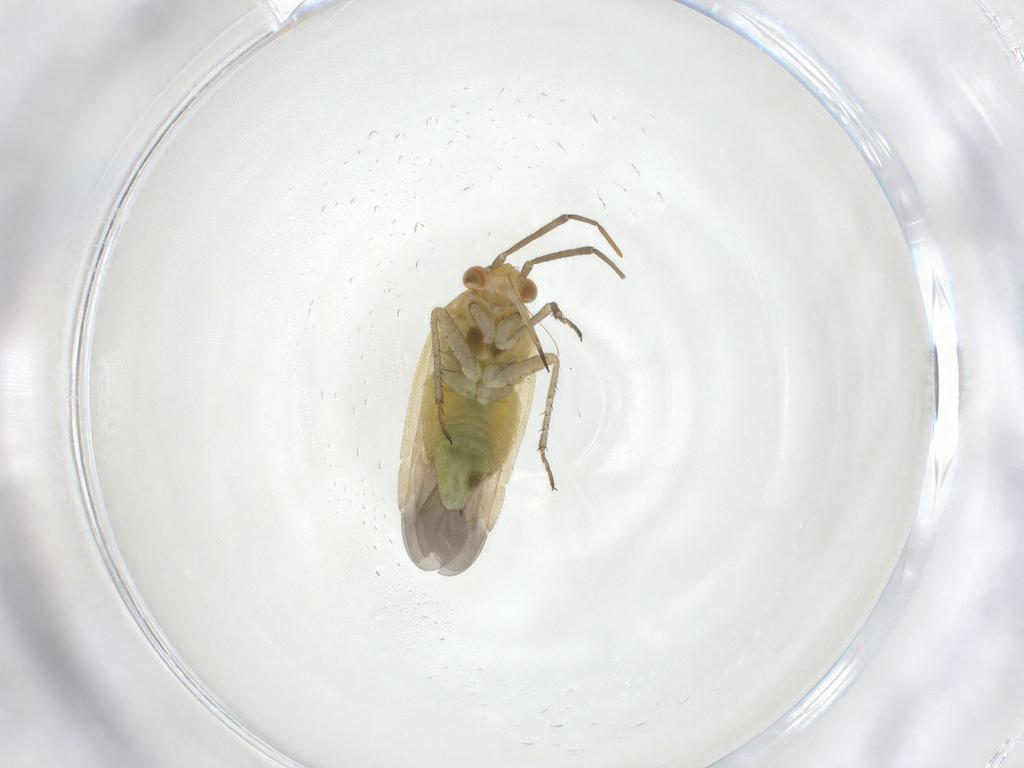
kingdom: Animalia
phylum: Arthropoda
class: Insecta
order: Hemiptera
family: Miridae
